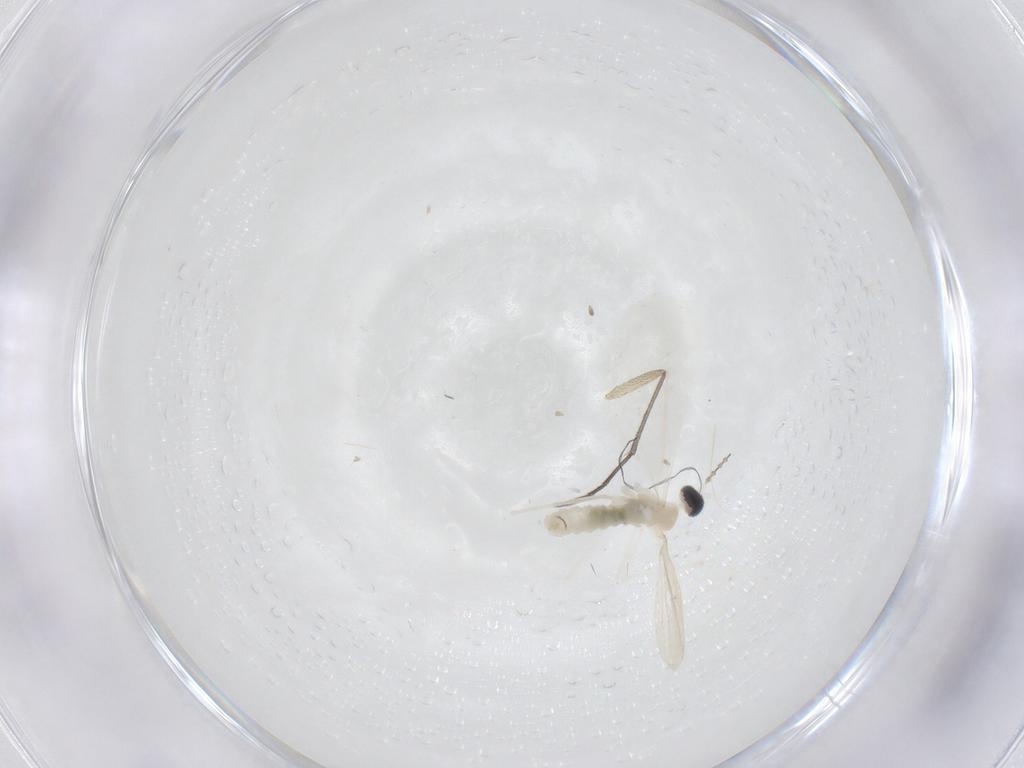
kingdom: Animalia
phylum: Arthropoda
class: Insecta
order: Diptera
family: Sciaridae
